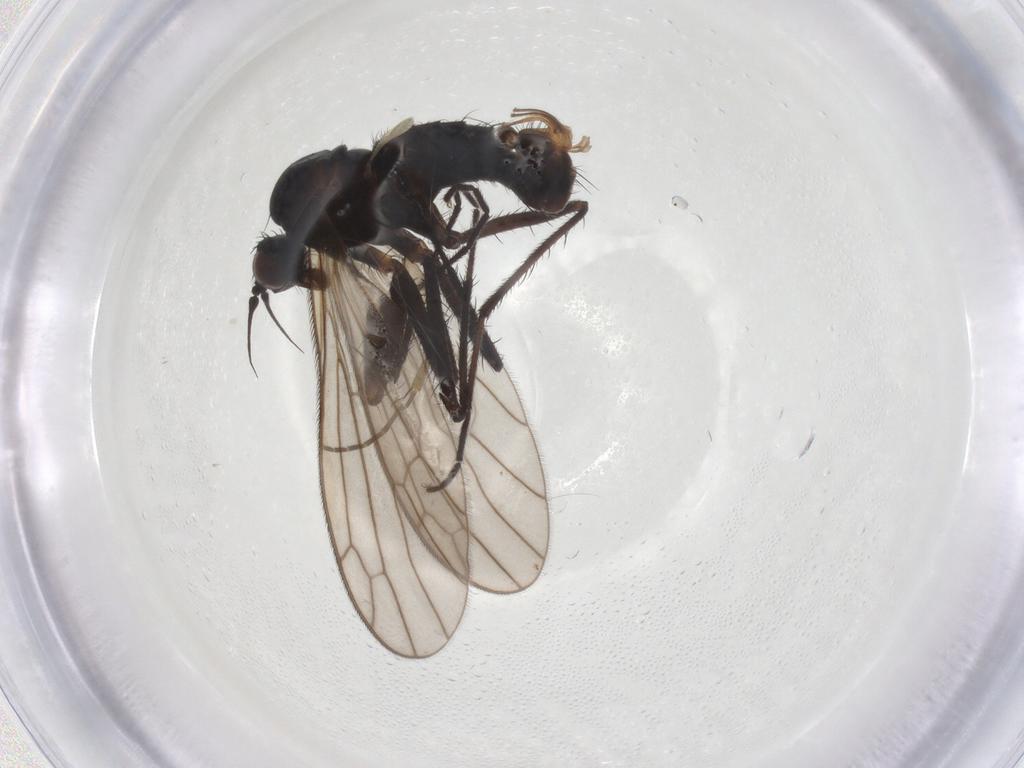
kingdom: Animalia
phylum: Arthropoda
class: Insecta
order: Diptera
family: Empididae
